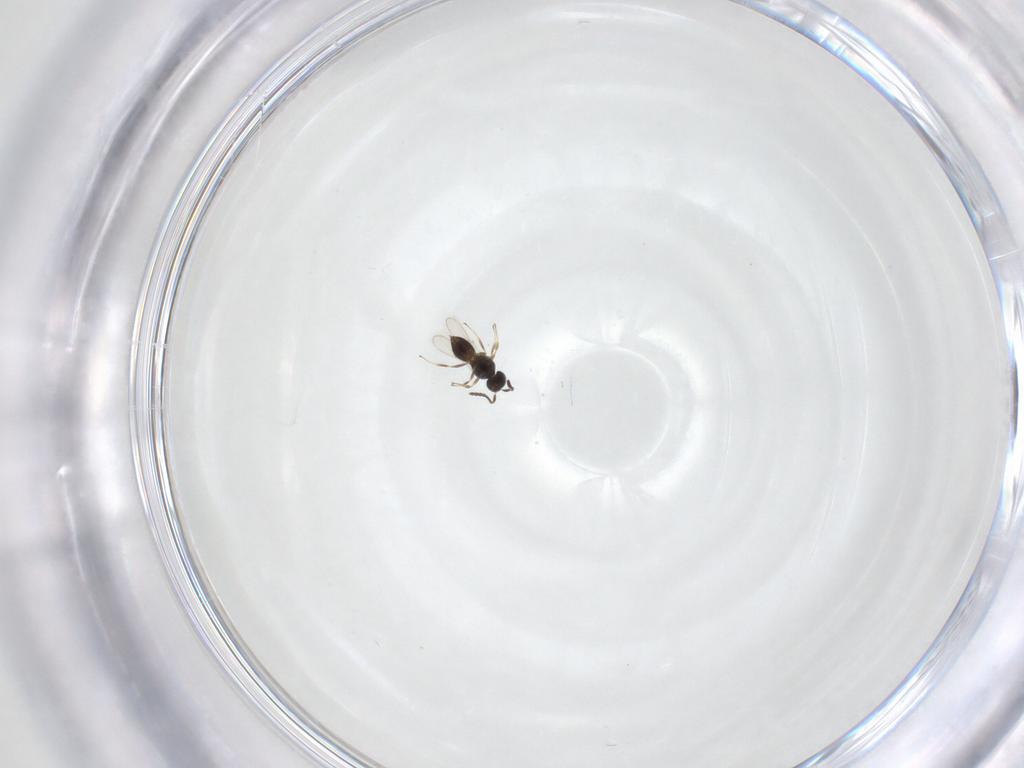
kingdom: Animalia
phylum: Arthropoda
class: Insecta
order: Hymenoptera
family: Scelionidae
